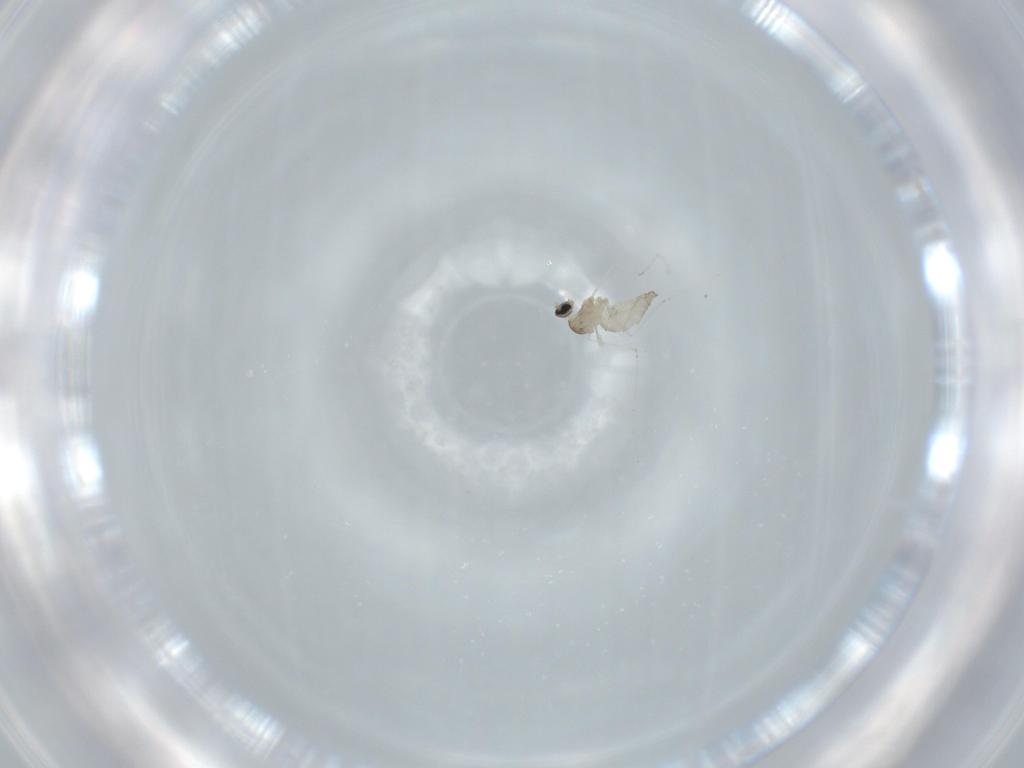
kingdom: Animalia
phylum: Arthropoda
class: Insecta
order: Diptera
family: Cecidomyiidae
